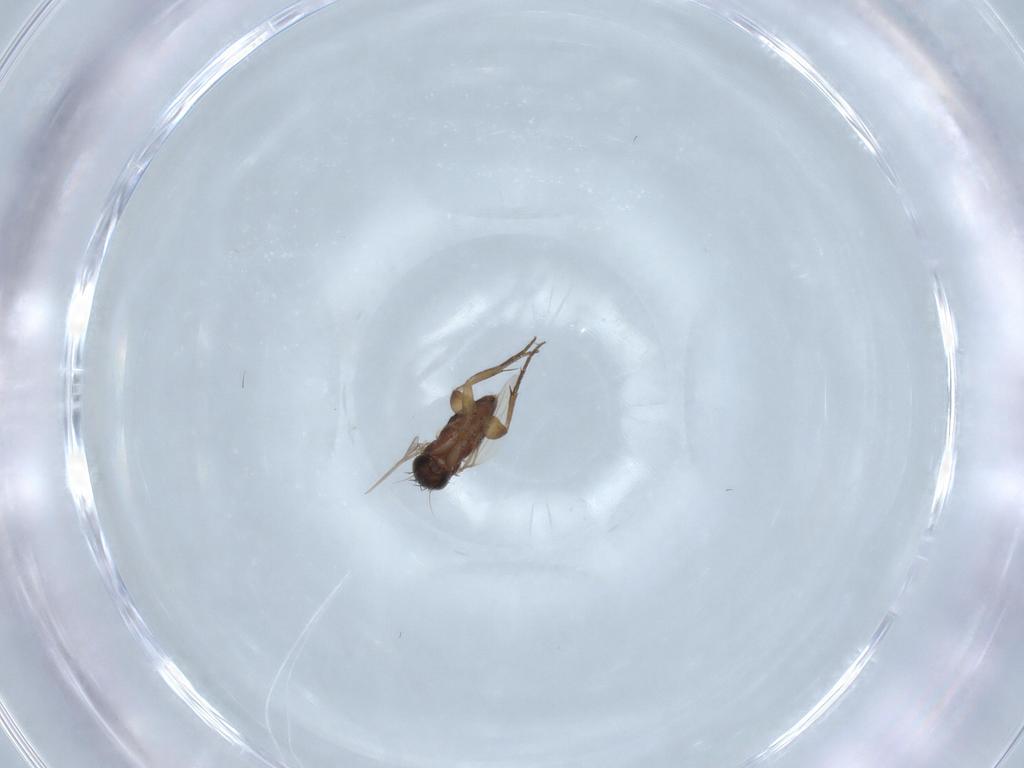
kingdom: Animalia
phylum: Arthropoda
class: Insecta
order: Diptera
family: Phoridae
